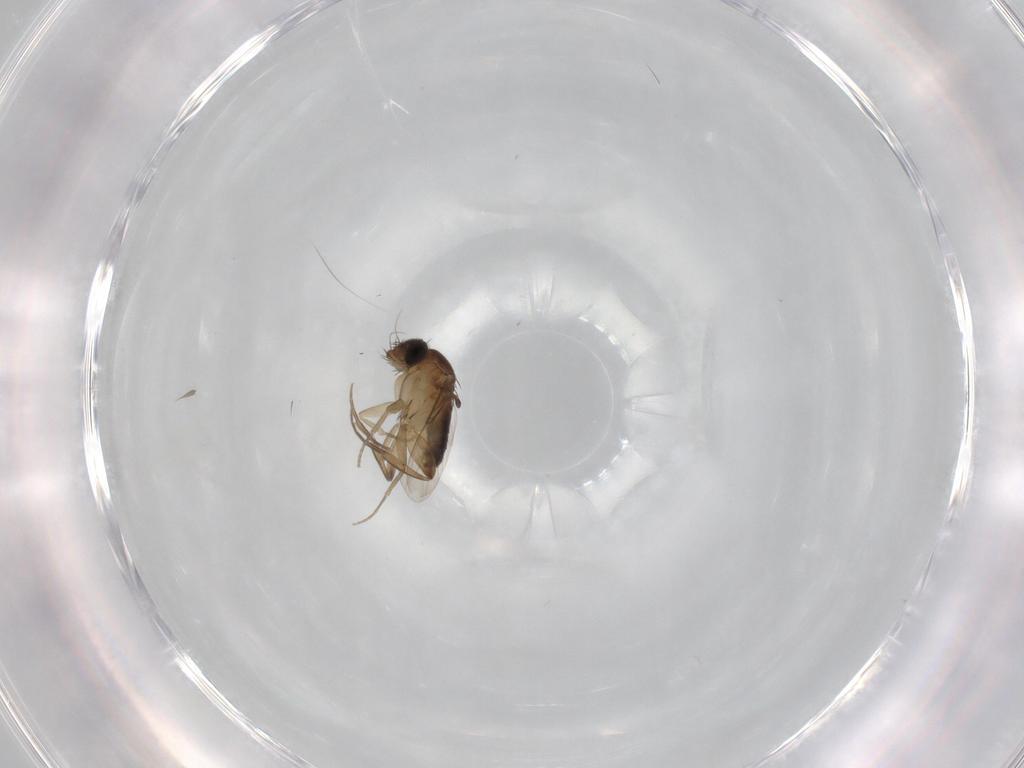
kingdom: Animalia
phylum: Arthropoda
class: Insecta
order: Diptera
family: Phoridae
